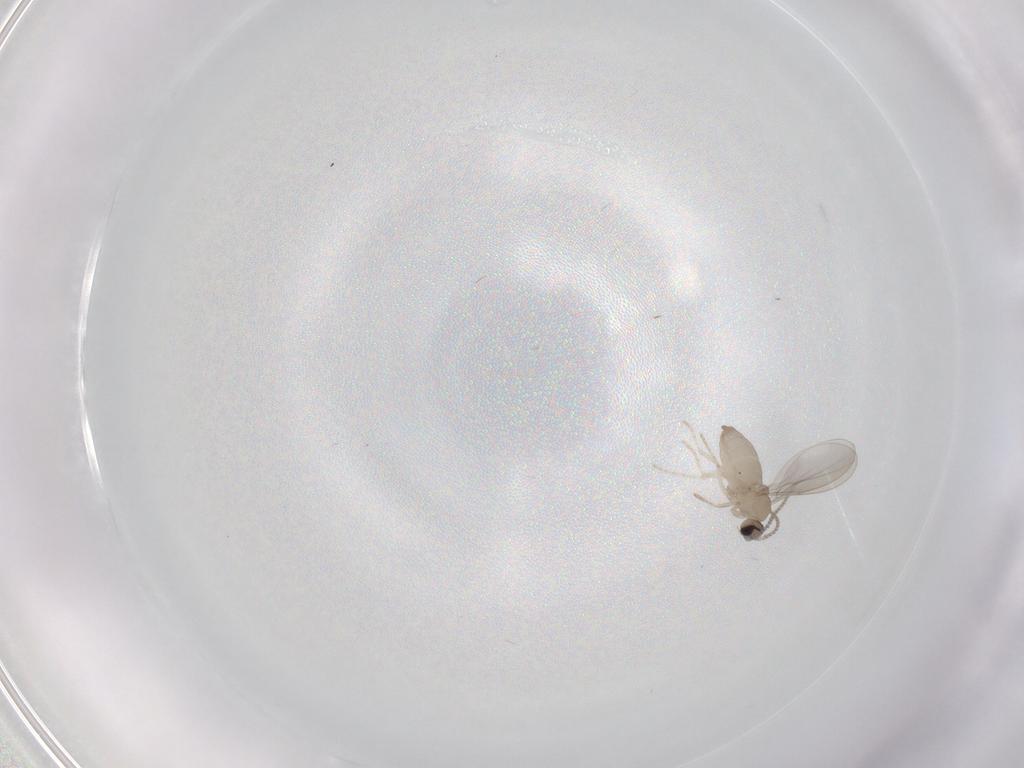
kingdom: Animalia
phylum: Arthropoda
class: Insecta
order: Diptera
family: Cecidomyiidae
